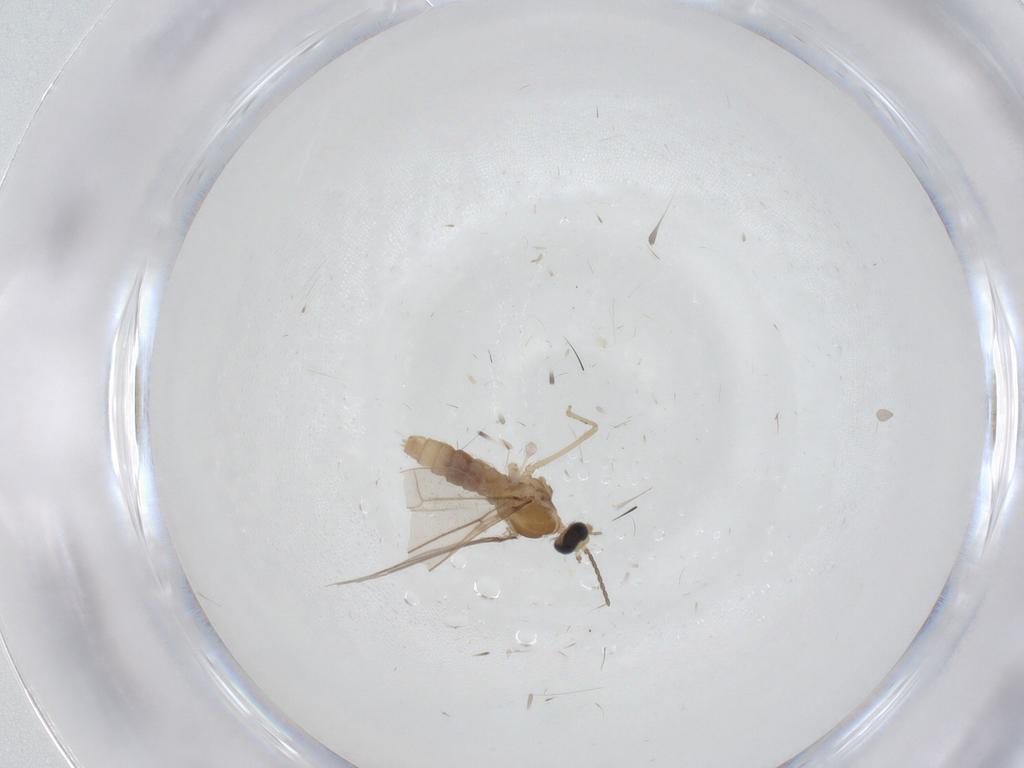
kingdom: Animalia
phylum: Arthropoda
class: Insecta
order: Diptera
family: Cecidomyiidae
